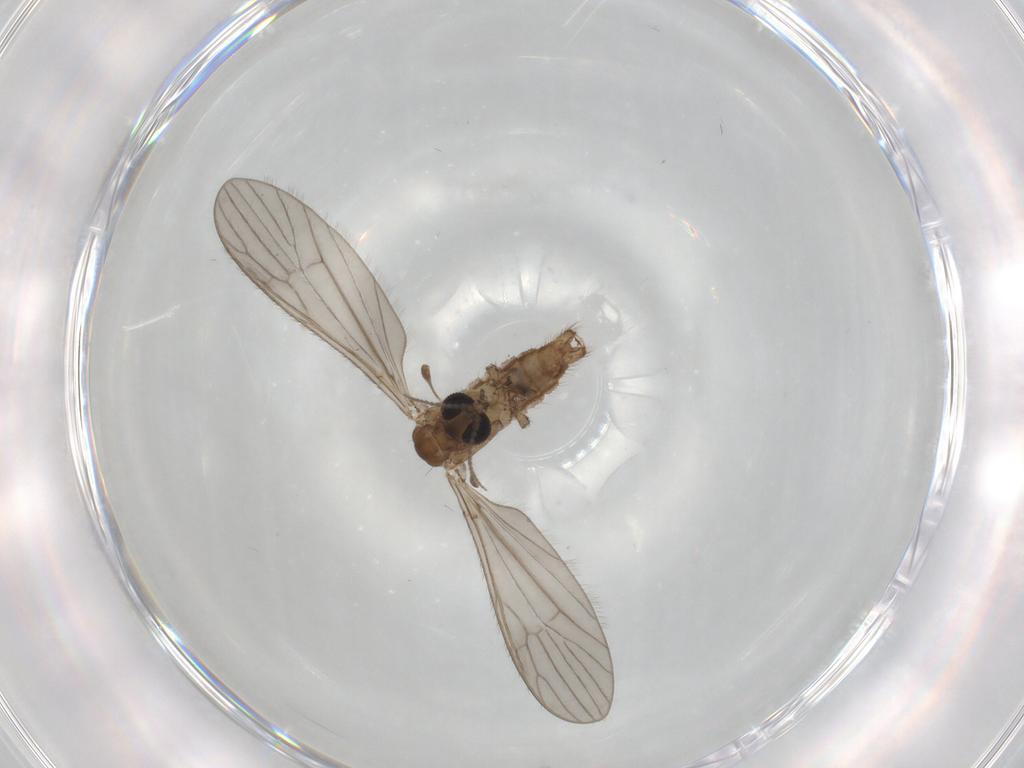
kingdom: Animalia
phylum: Arthropoda
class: Insecta
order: Diptera
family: Limoniidae
